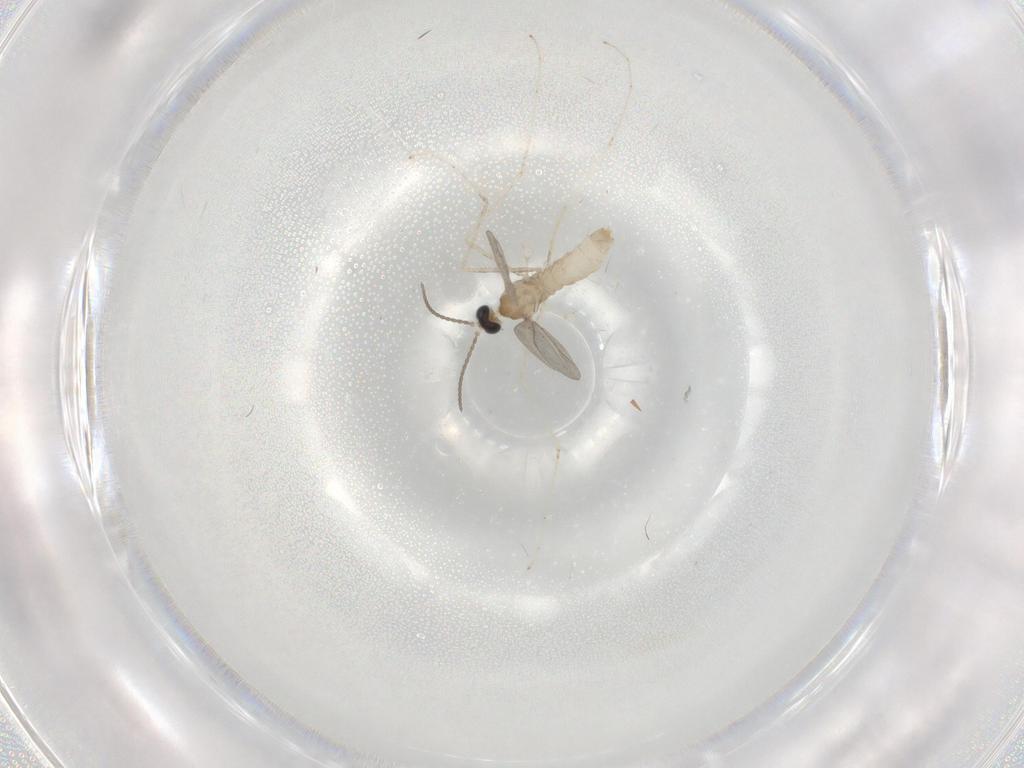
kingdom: Animalia
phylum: Arthropoda
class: Insecta
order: Diptera
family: Cecidomyiidae
